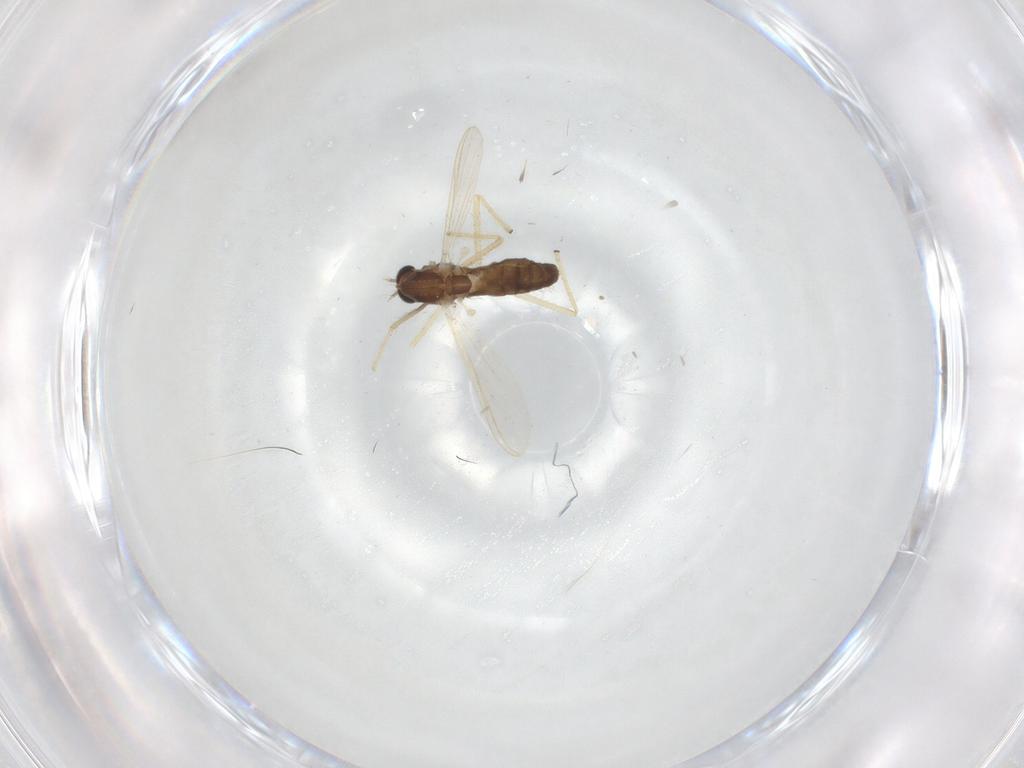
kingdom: Animalia
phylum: Arthropoda
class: Insecta
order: Diptera
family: Chironomidae
